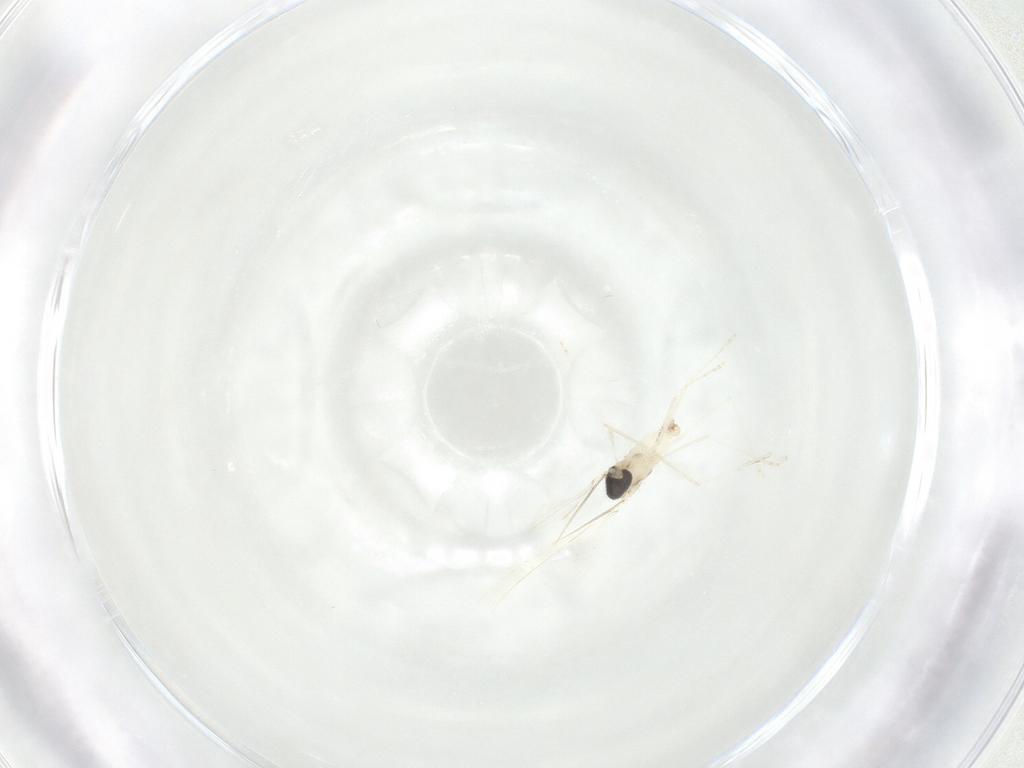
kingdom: Animalia
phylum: Arthropoda
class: Insecta
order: Diptera
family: Cecidomyiidae
